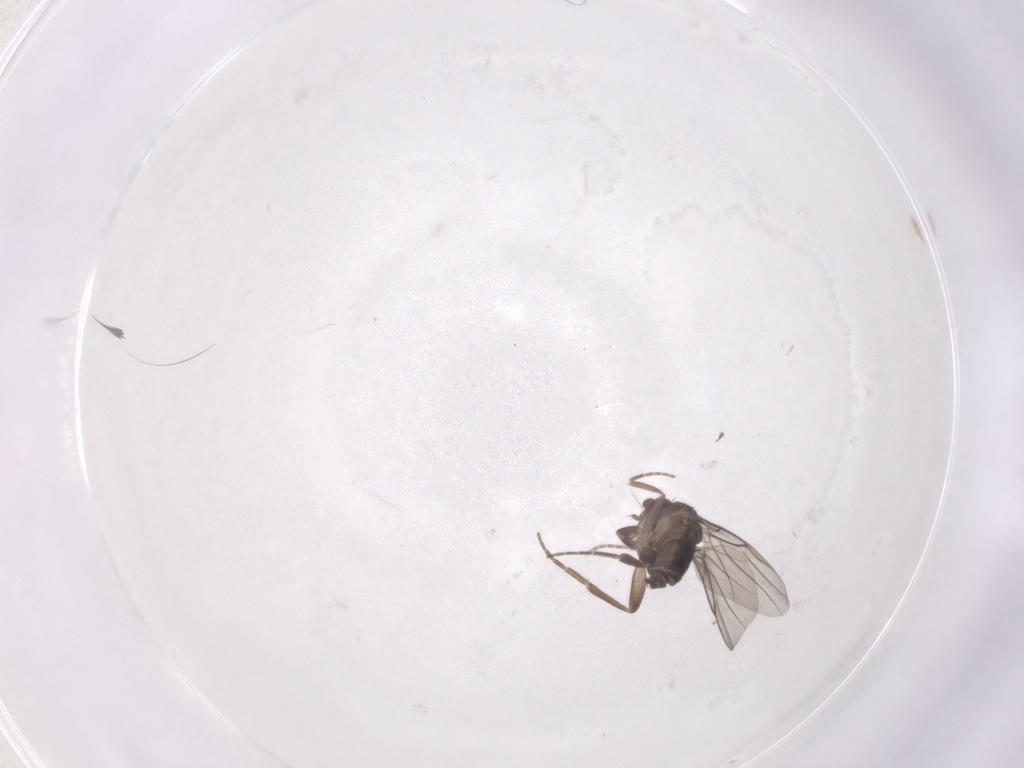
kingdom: Animalia
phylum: Arthropoda
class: Insecta
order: Diptera
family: Phoridae
